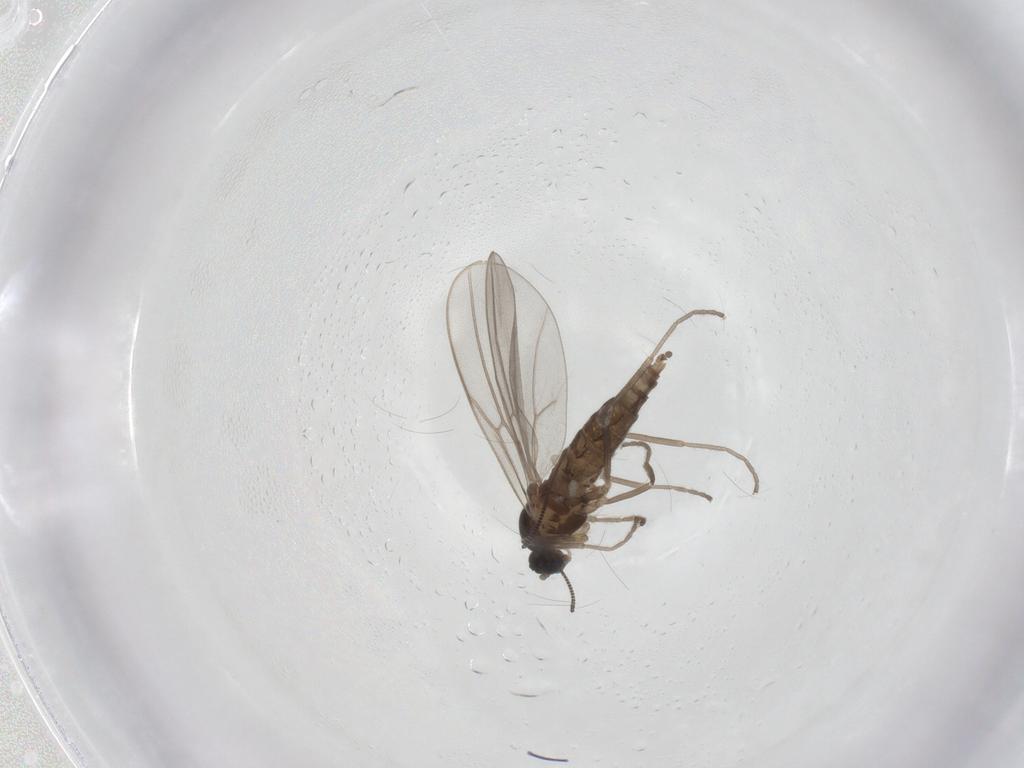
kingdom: Animalia
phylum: Arthropoda
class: Insecta
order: Diptera
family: Cecidomyiidae
